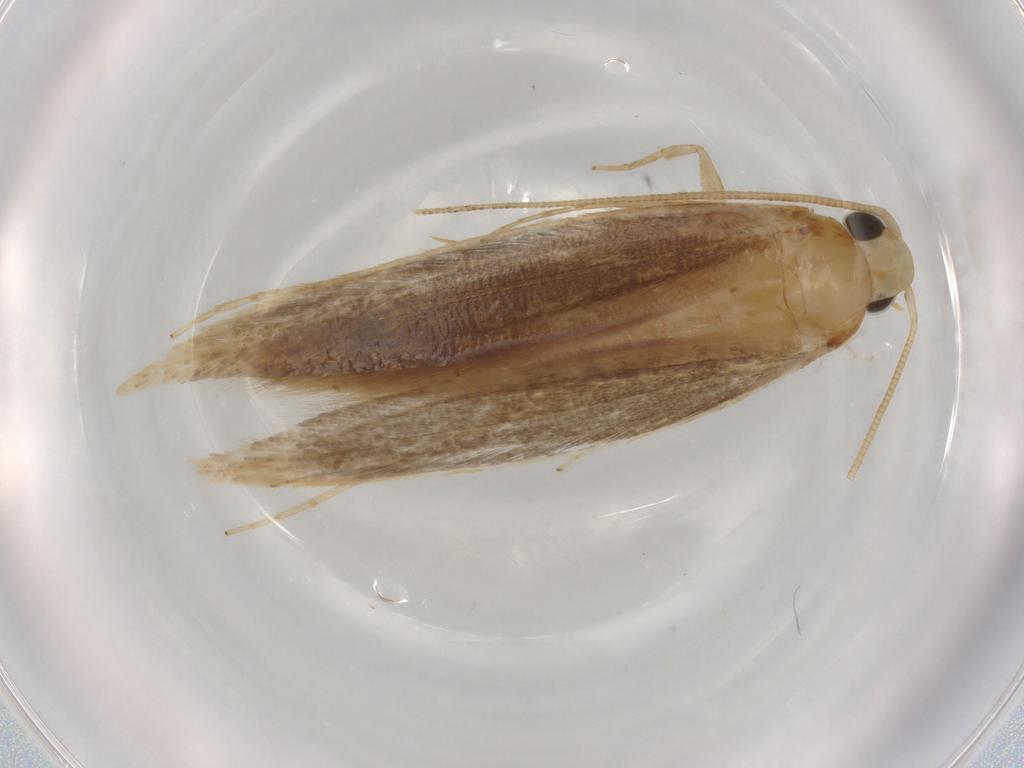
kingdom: Animalia
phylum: Arthropoda
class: Insecta
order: Lepidoptera
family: Tineidae
